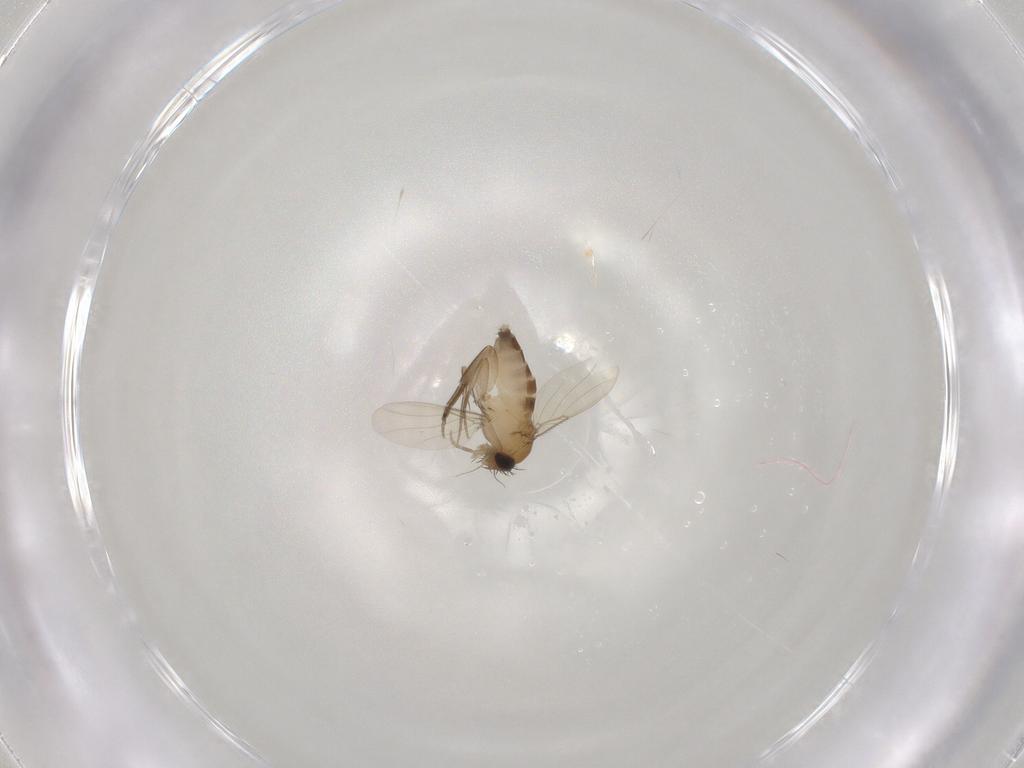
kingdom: Animalia
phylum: Arthropoda
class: Insecta
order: Diptera
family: Phoridae
